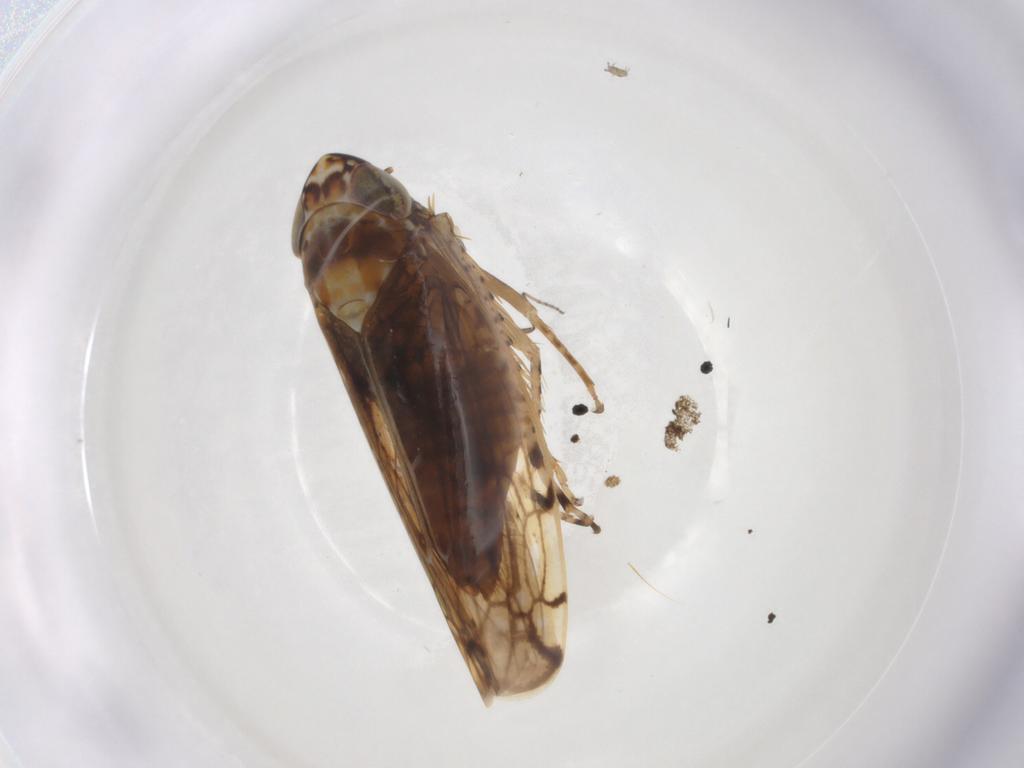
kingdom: Animalia
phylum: Arthropoda
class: Insecta
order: Hemiptera
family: Cicadellidae
